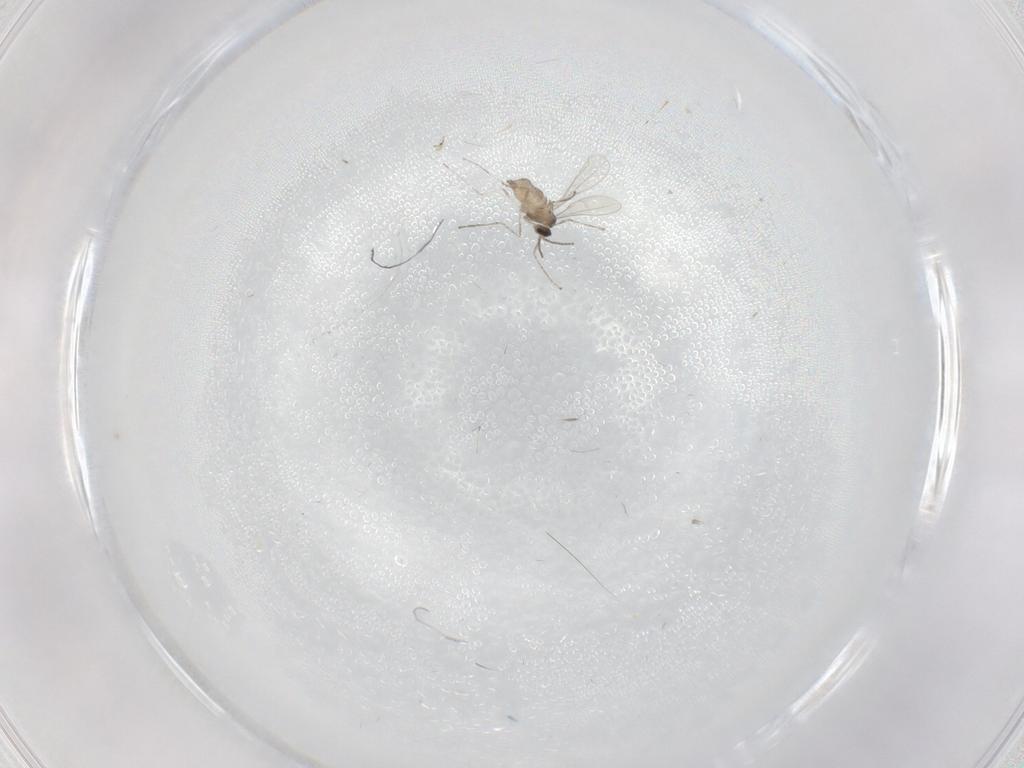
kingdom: Animalia
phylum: Arthropoda
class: Insecta
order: Diptera
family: Cecidomyiidae
